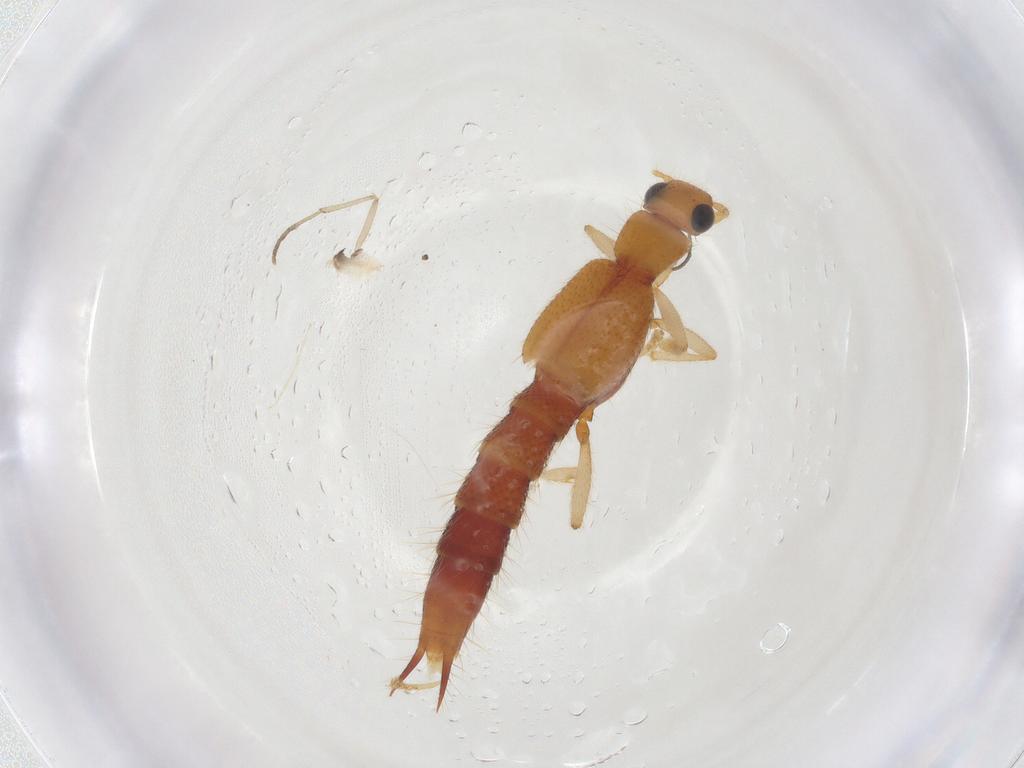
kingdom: Animalia
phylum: Arthropoda
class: Insecta
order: Coleoptera
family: Staphylinidae
